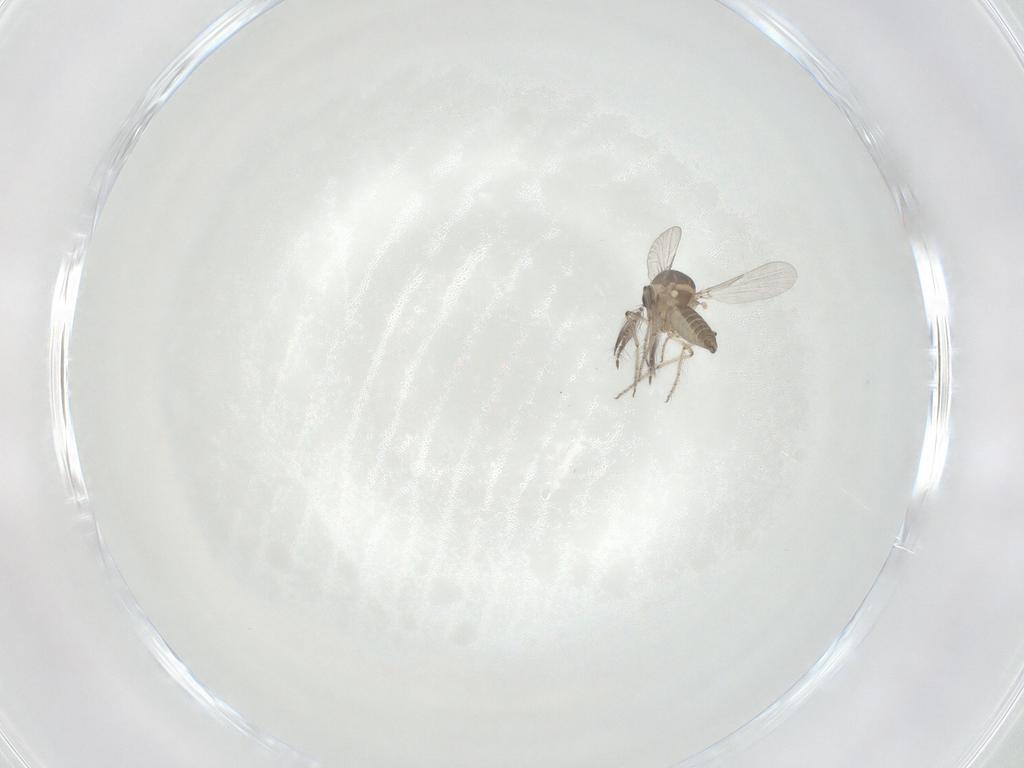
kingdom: Animalia
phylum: Arthropoda
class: Insecta
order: Diptera
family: Ceratopogonidae
